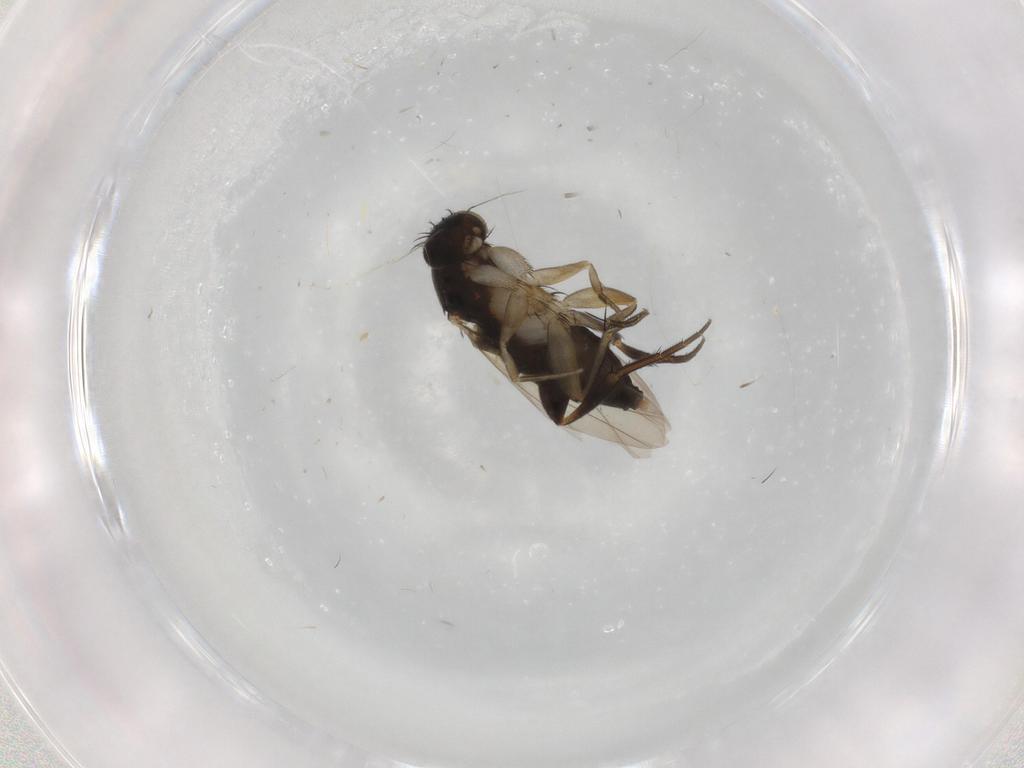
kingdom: Animalia
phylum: Arthropoda
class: Insecta
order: Diptera
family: Phoridae
